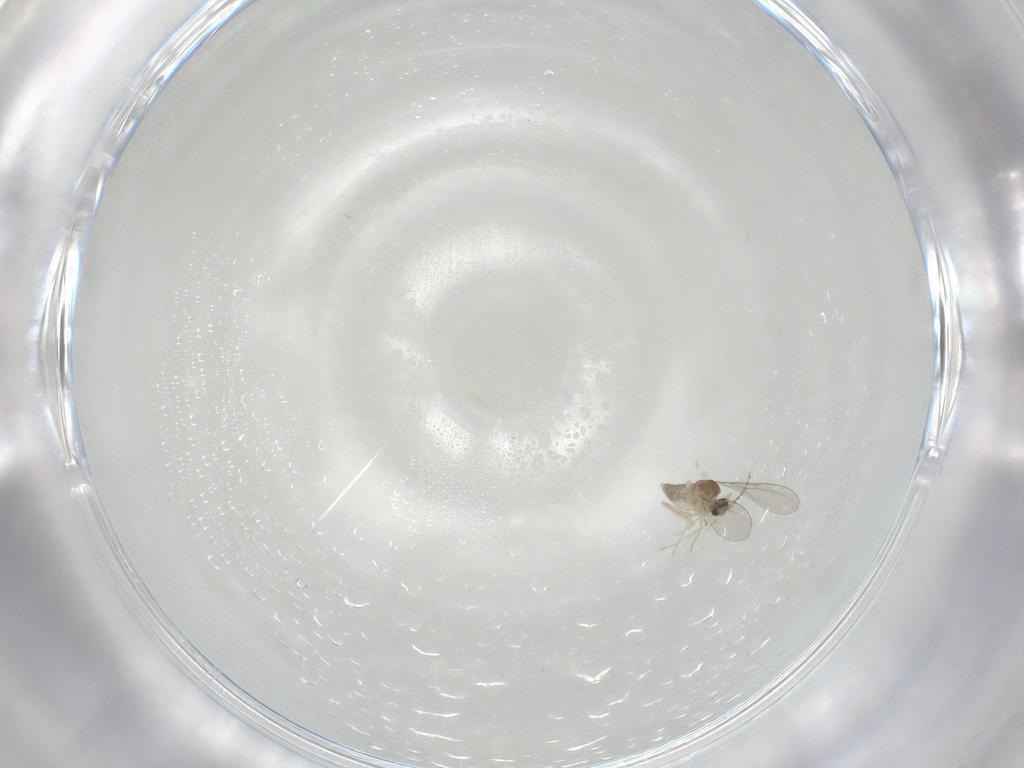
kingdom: Animalia
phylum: Arthropoda
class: Insecta
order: Diptera
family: Cecidomyiidae
